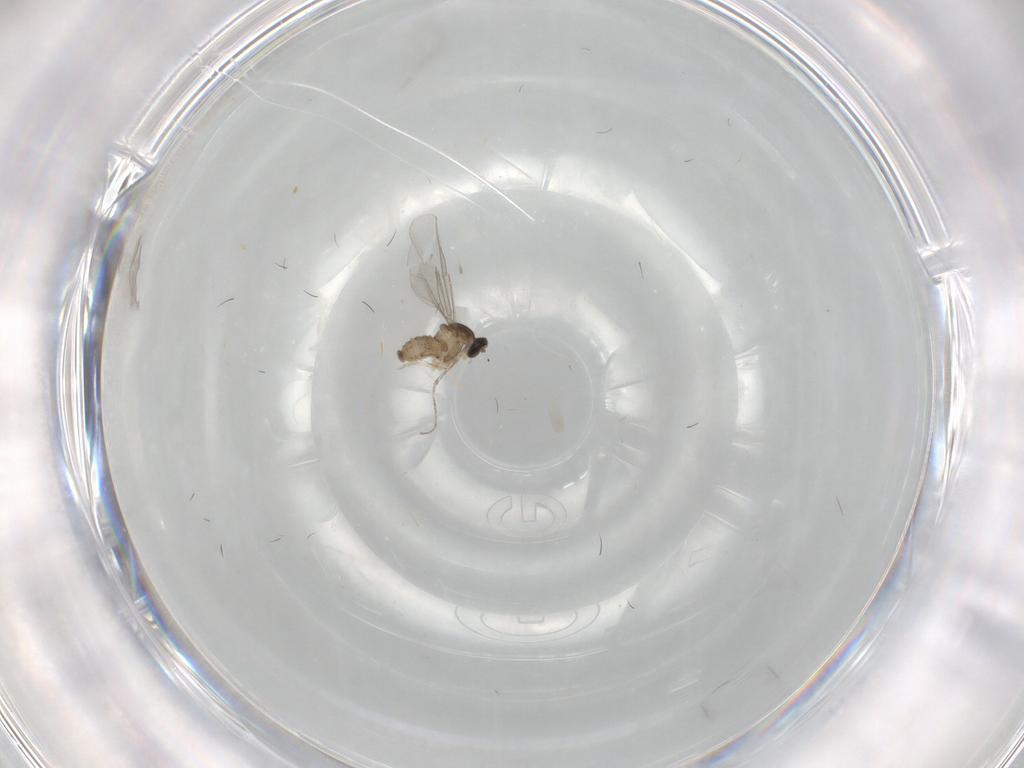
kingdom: Animalia
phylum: Arthropoda
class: Insecta
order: Diptera
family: Cecidomyiidae
